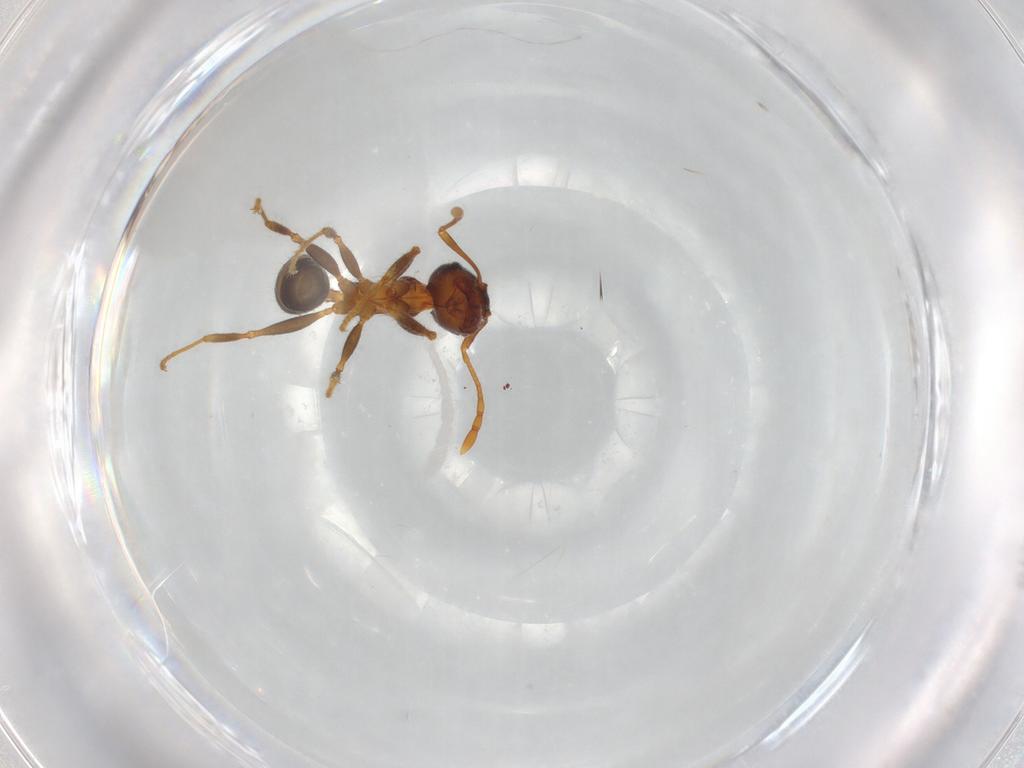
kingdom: Animalia
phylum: Arthropoda
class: Insecta
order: Hymenoptera
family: Formicidae
